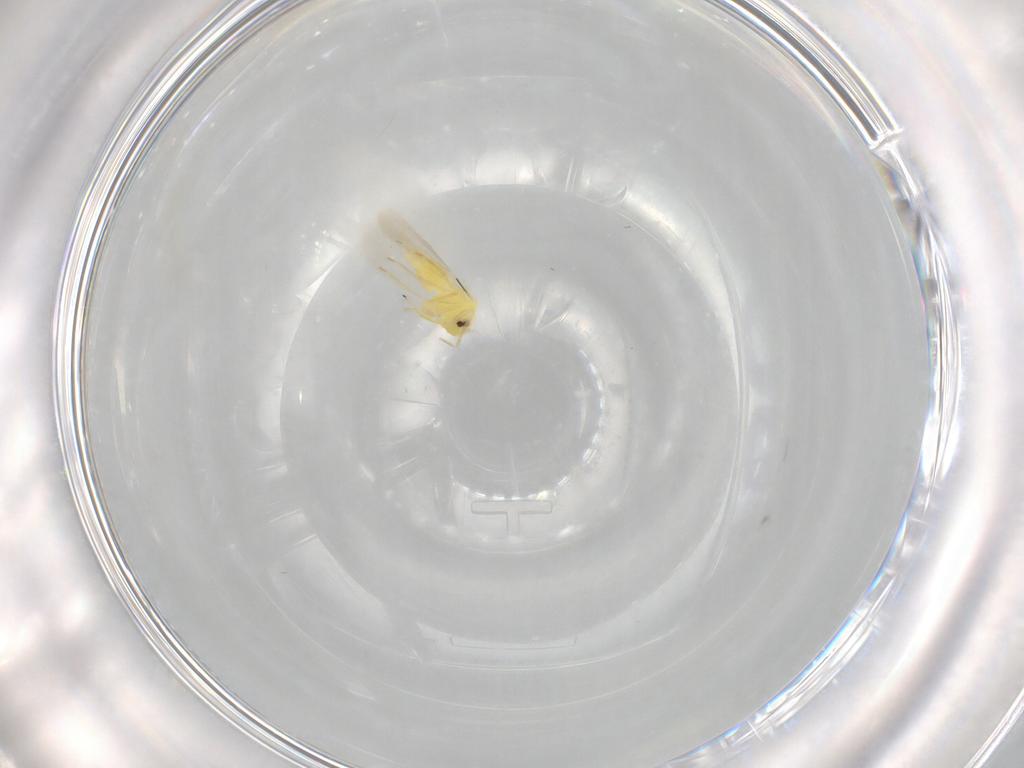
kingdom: Animalia
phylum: Arthropoda
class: Insecta
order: Hemiptera
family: Aleyrodidae
